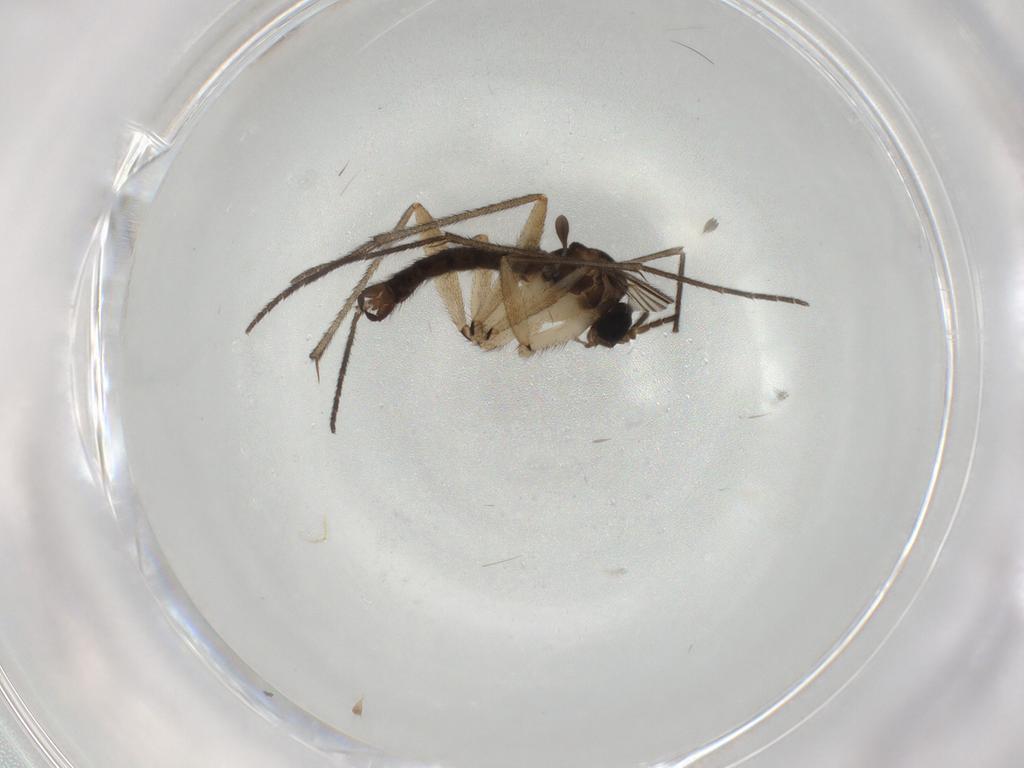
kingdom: Animalia
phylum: Arthropoda
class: Insecta
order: Diptera
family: Sciaridae
